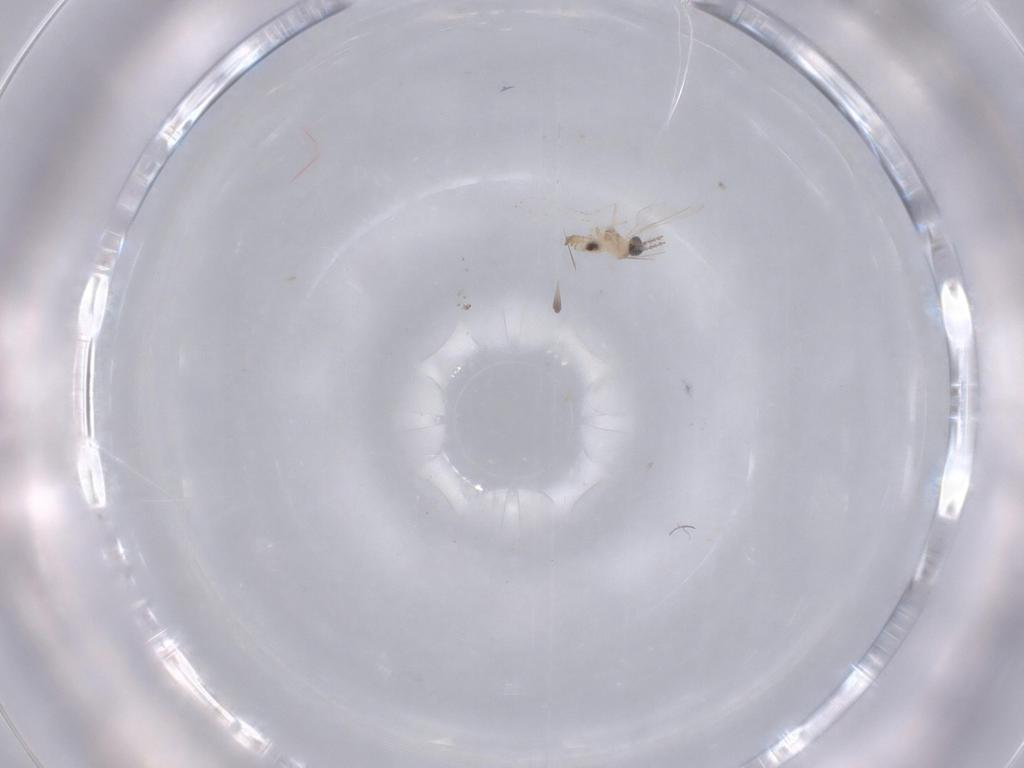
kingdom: Animalia
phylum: Arthropoda
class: Insecta
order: Diptera
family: Cecidomyiidae
